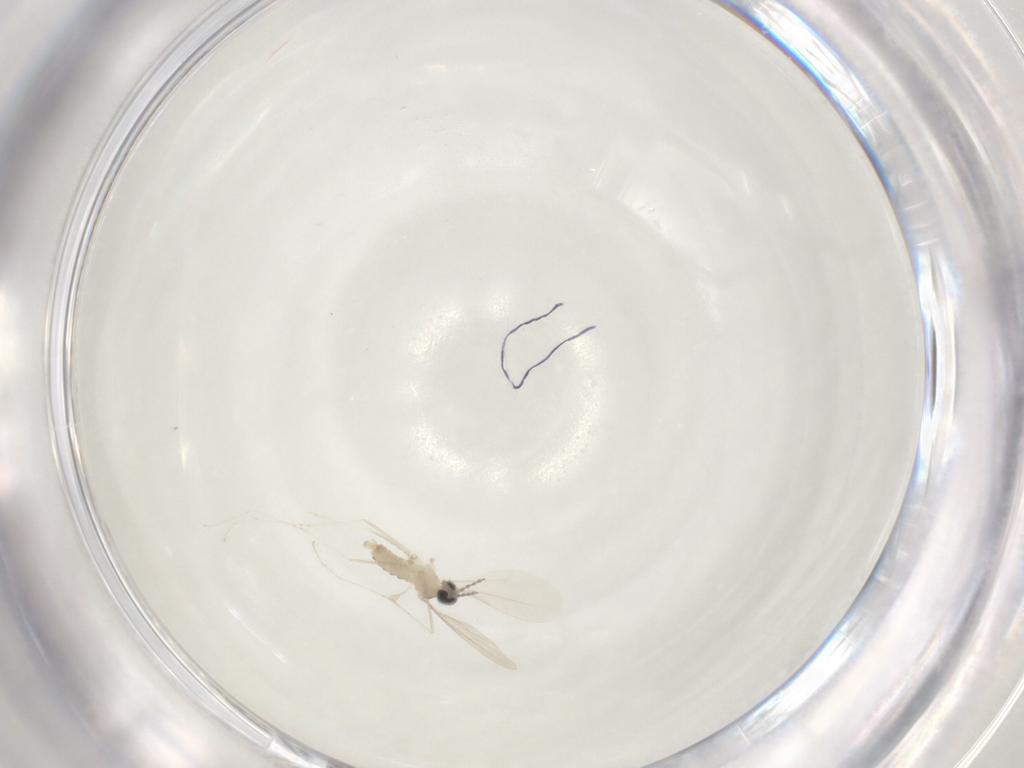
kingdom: Animalia
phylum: Arthropoda
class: Insecta
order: Diptera
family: Cecidomyiidae
